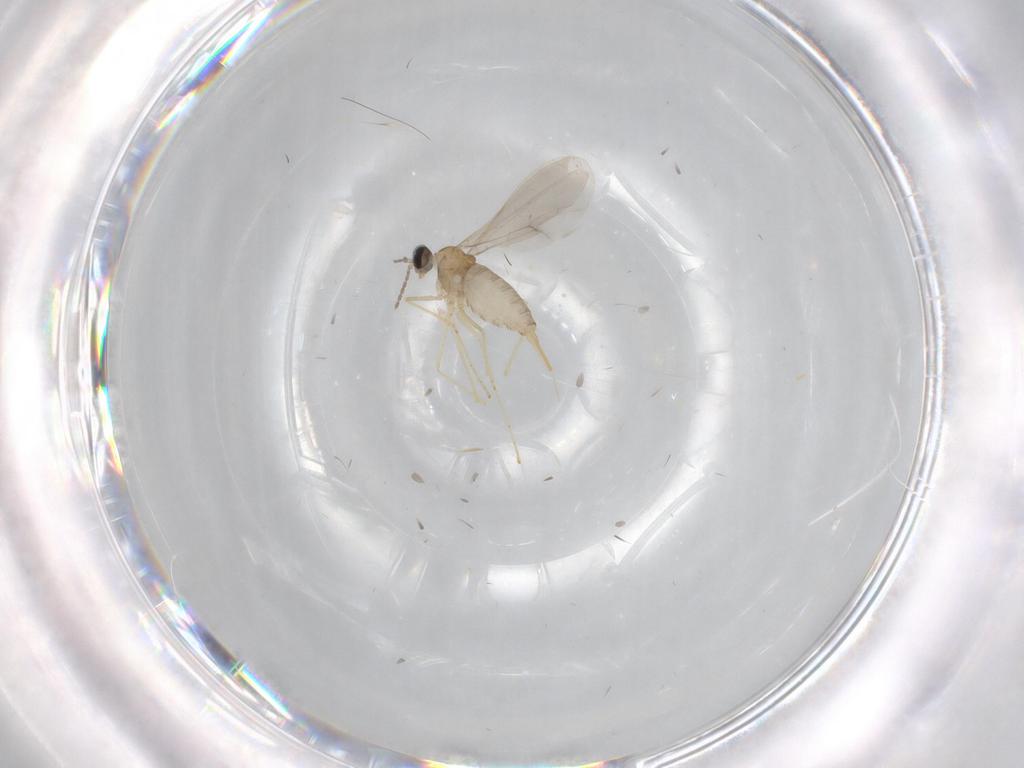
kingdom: Animalia
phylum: Arthropoda
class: Insecta
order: Diptera
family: Cecidomyiidae
